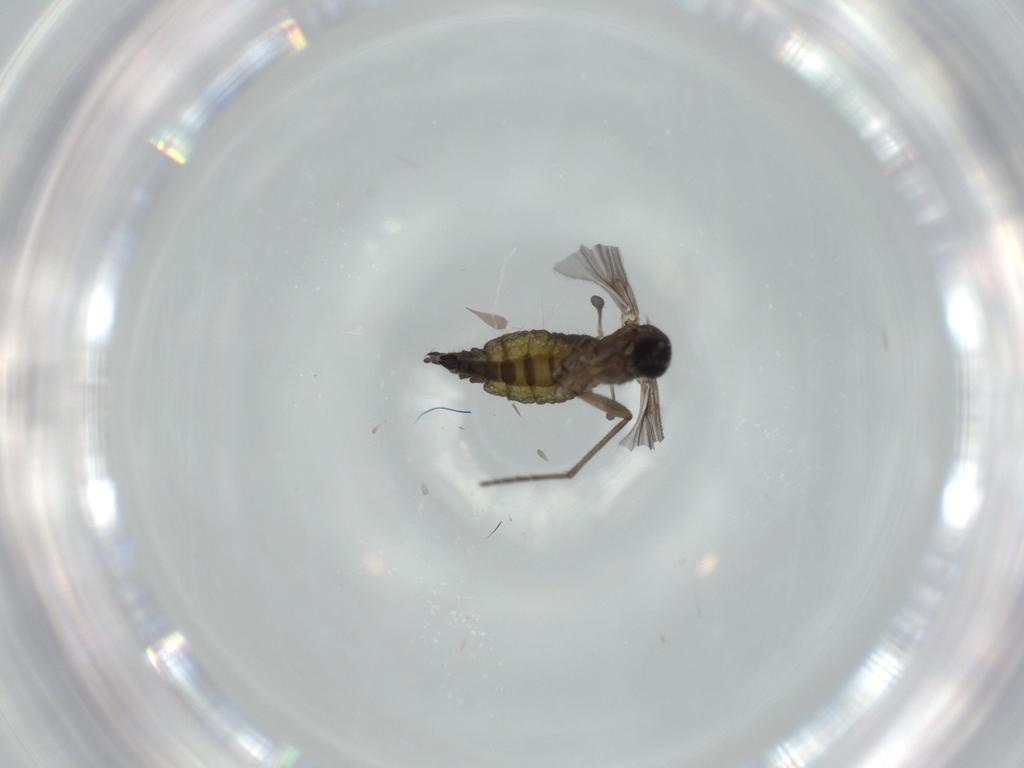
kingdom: Animalia
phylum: Arthropoda
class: Insecta
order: Diptera
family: Sciaridae
